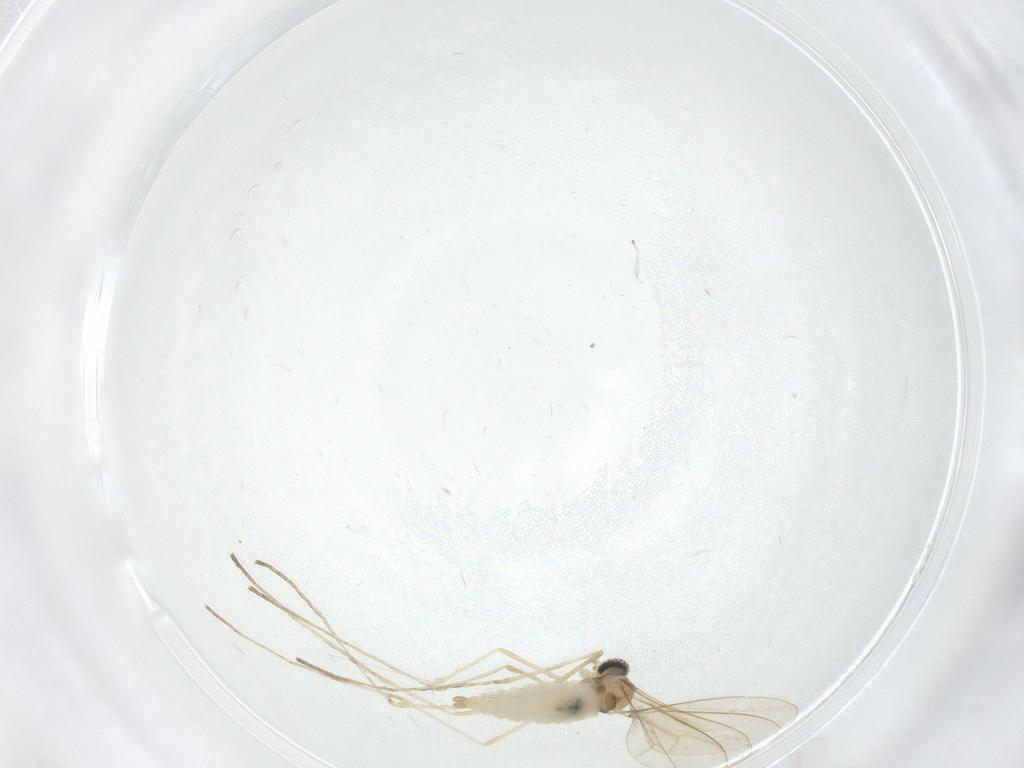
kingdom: Animalia
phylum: Arthropoda
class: Insecta
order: Diptera
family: Cecidomyiidae
